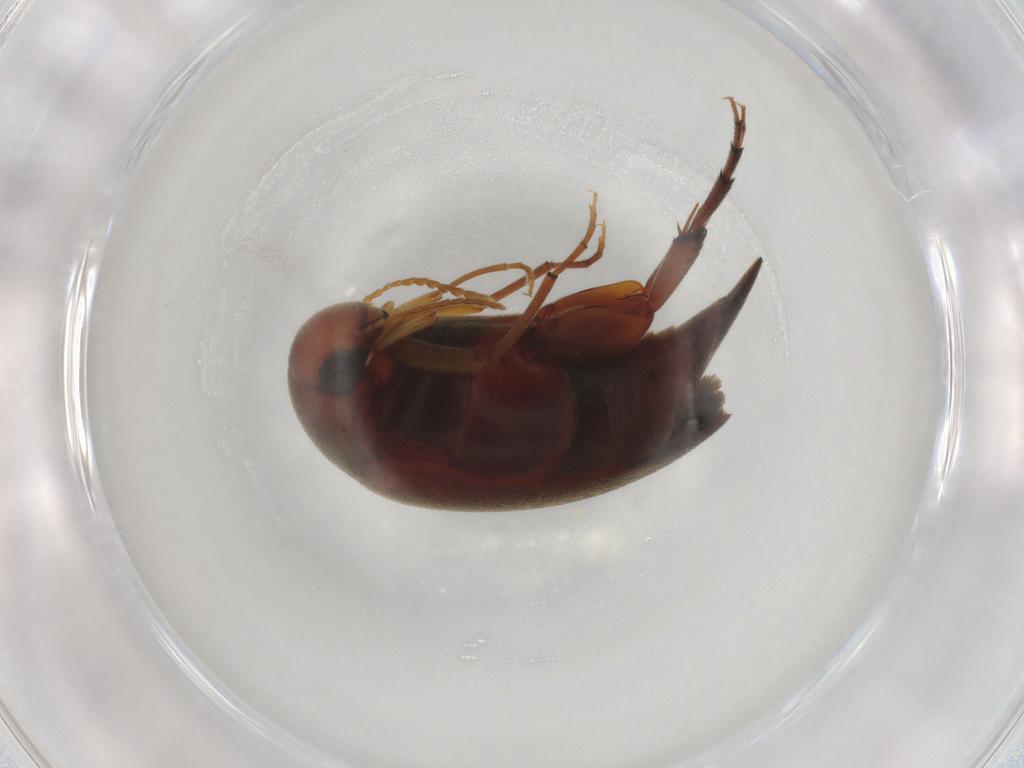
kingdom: Animalia
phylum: Arthropoda
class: Insecta
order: Coleoptera
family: Mordellidae
